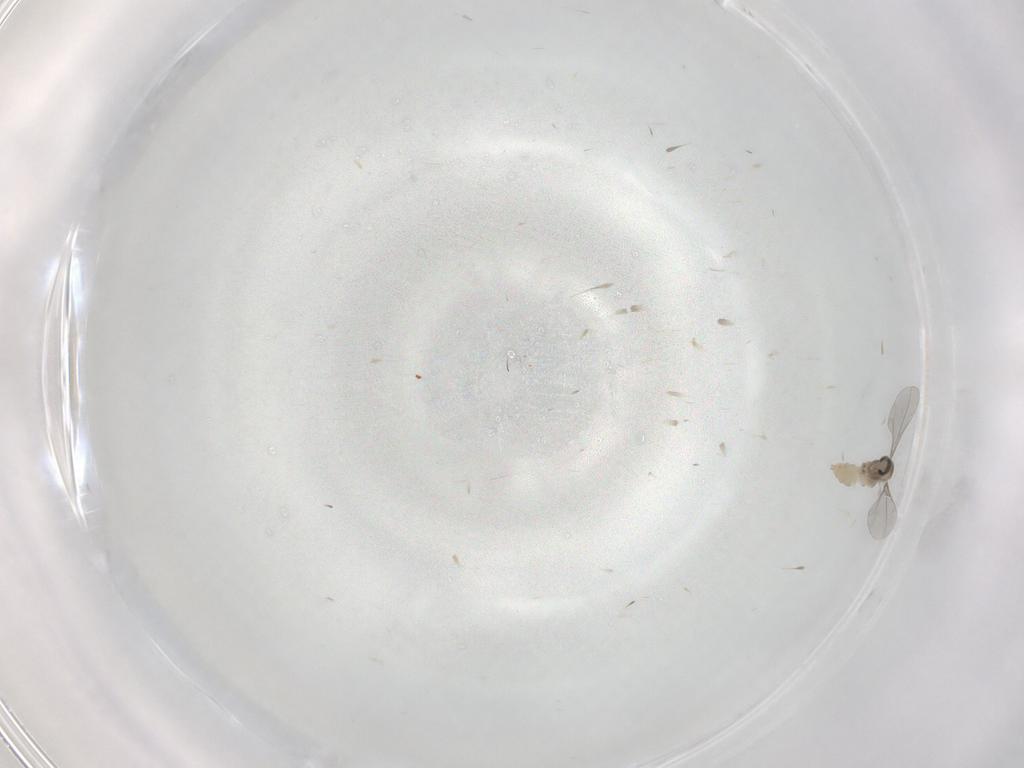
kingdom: Animalia
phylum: Arthropoda
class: Insecta
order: Diptera
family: Cecidomyiidae
